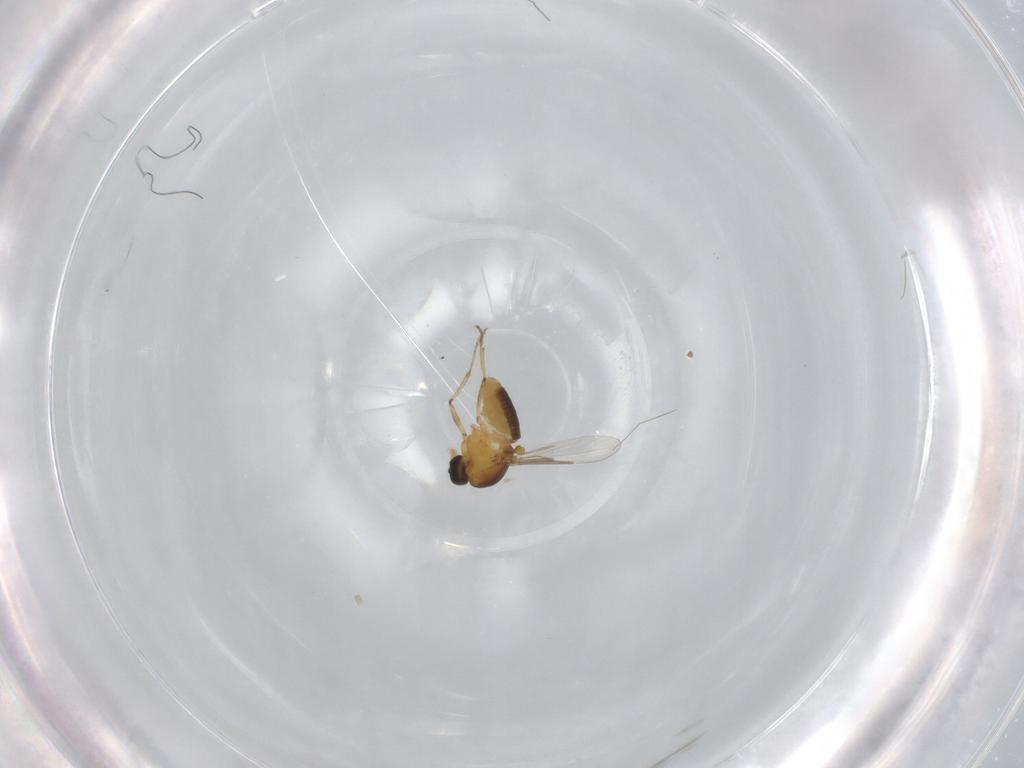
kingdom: Animalia
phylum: Arthropoda
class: Insecta
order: Diptera
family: Ceratopogonidae
